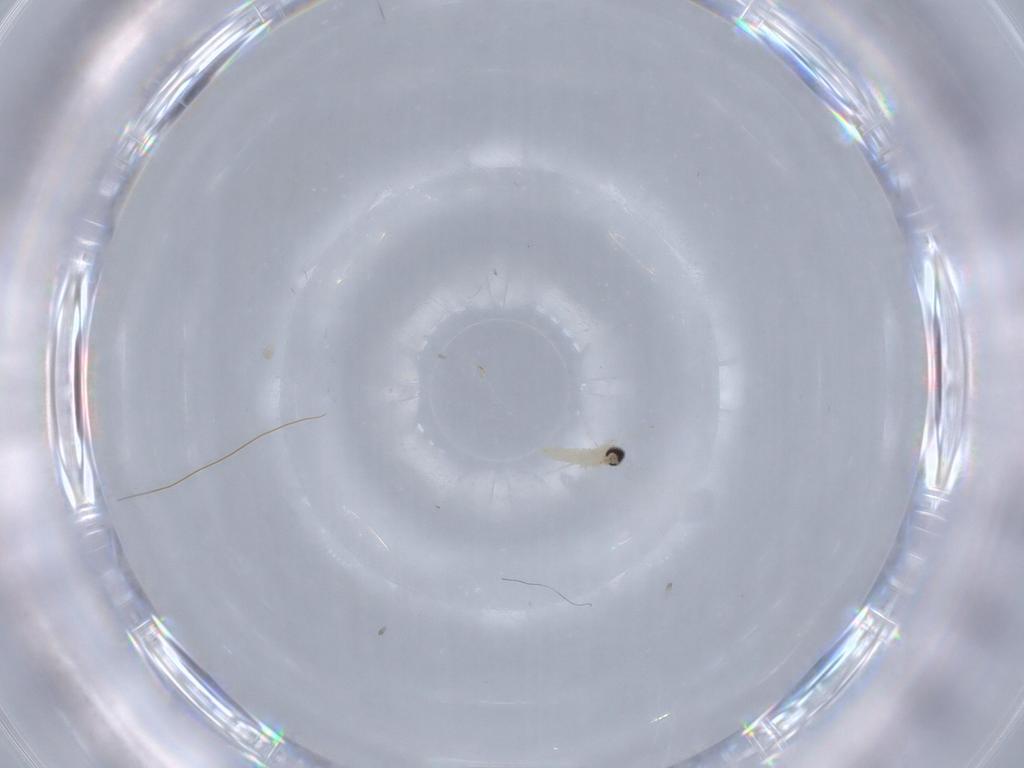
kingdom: Animalia
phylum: Arthropoda
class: Insecta
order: Diptera
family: Cecidomyiidae
